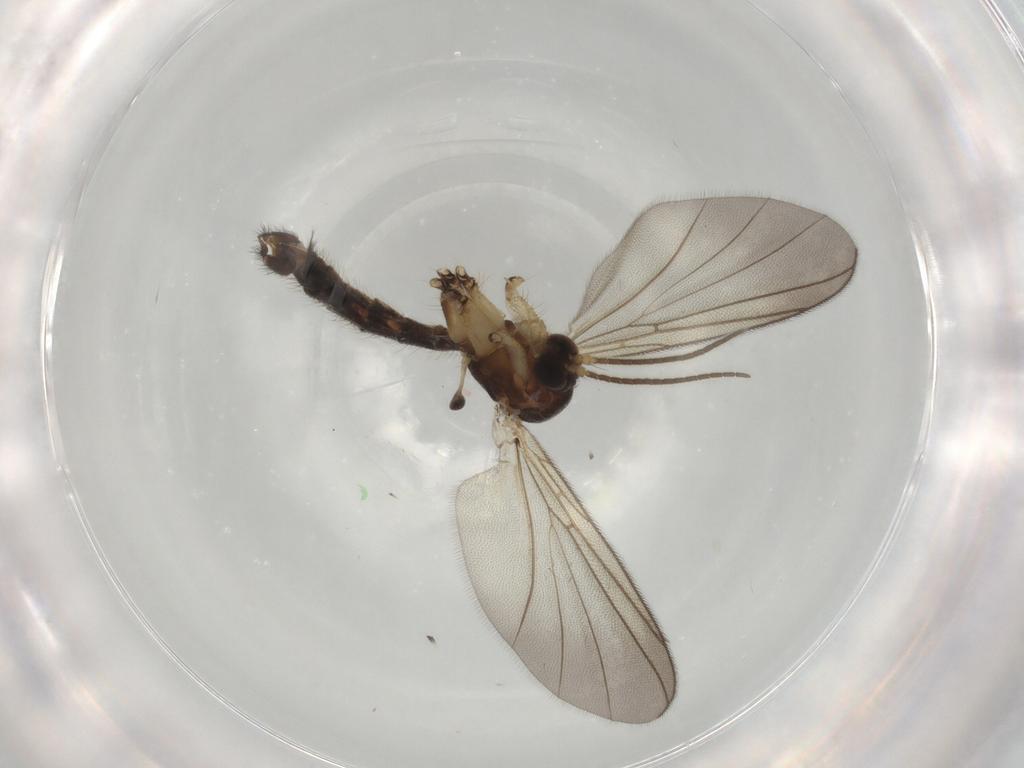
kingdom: Animalia
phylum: Arthropoda
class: Insecta
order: Diptera
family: Mycetophilidae
